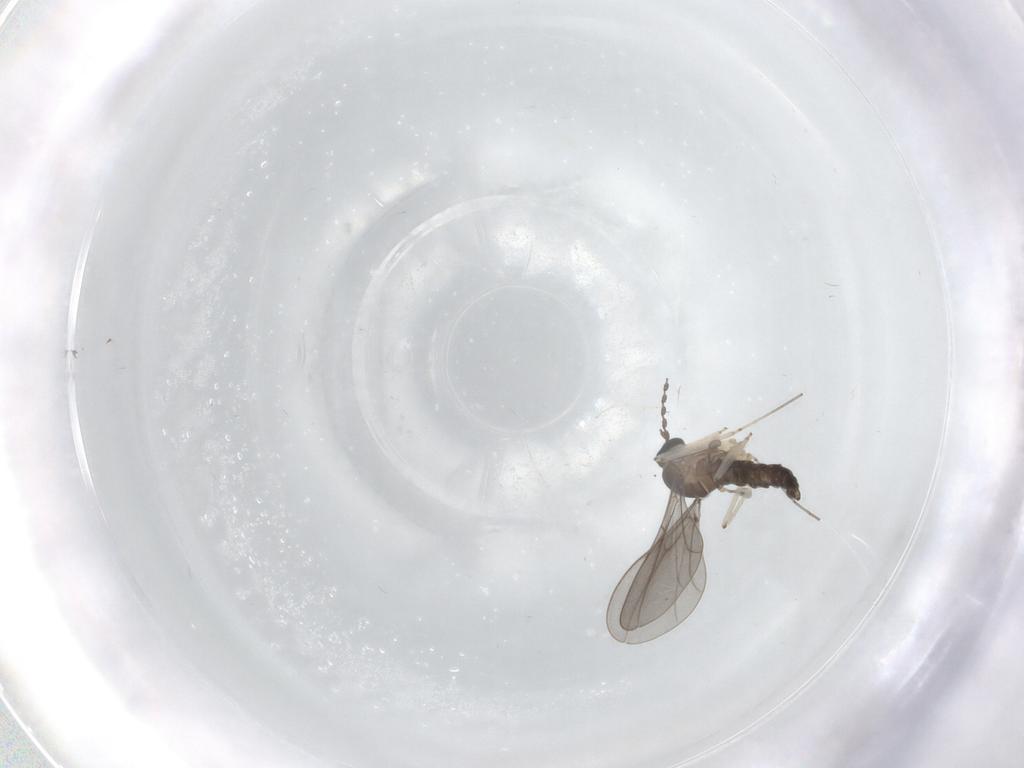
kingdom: Animalia
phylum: Arthropoda
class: Insecta
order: Diptera
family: Cecidomyiidae
